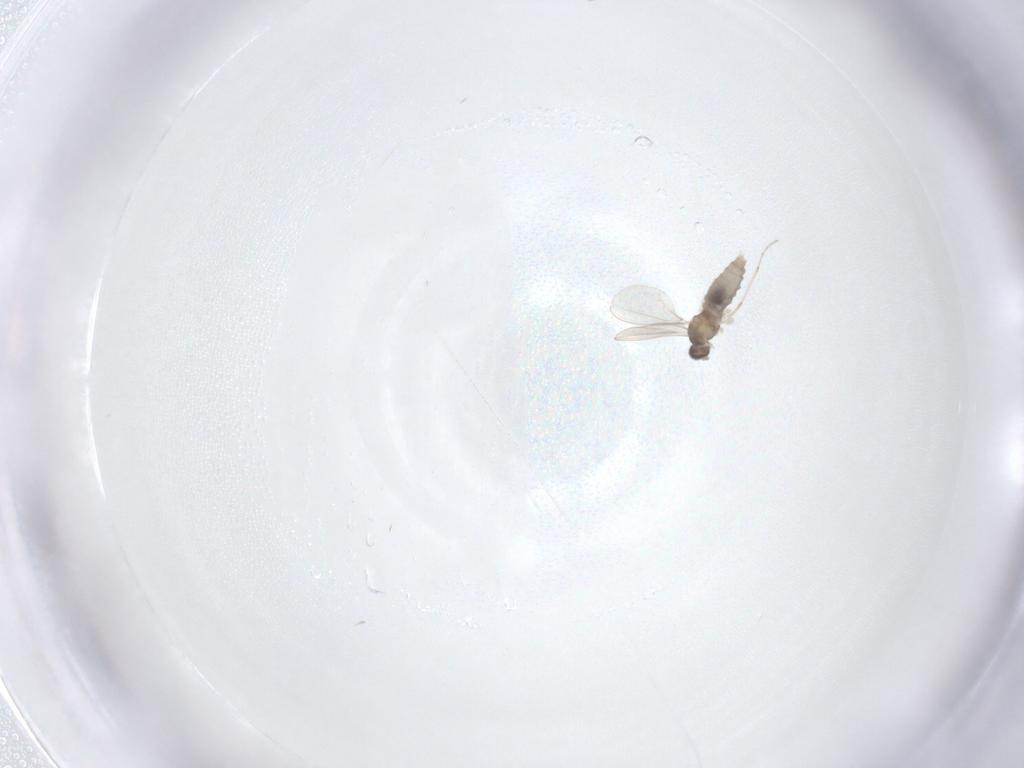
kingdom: Animalia
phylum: Arthropoda
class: Insecta
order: Diptera
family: Cecidomyiidae
